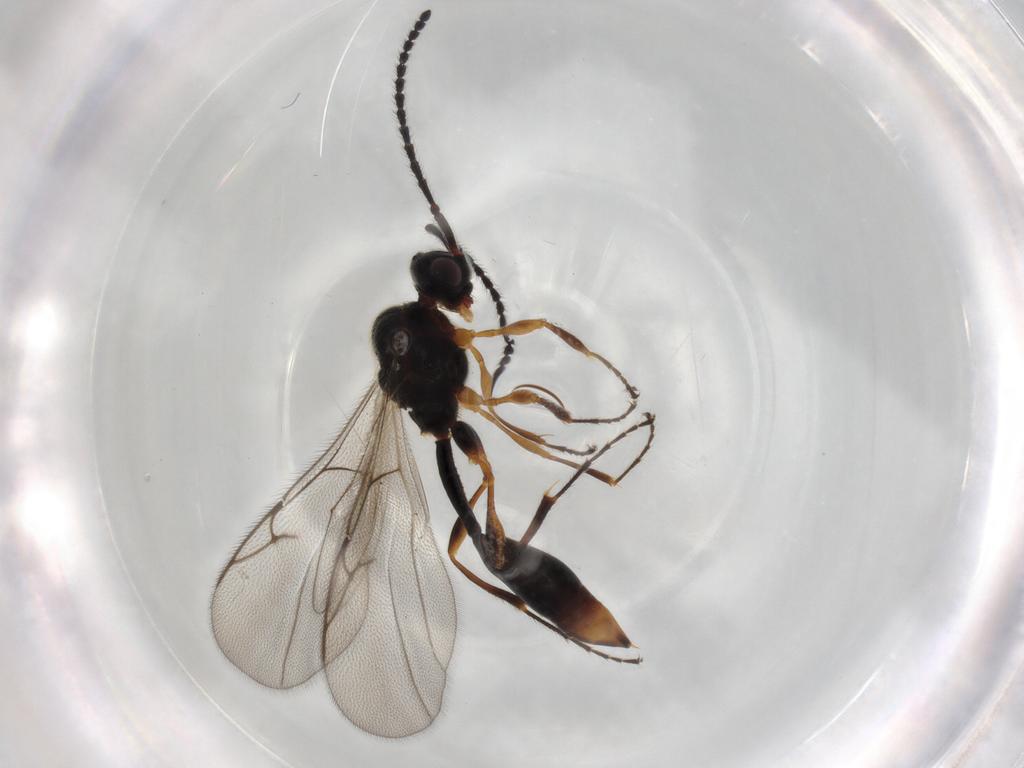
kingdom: Animalia
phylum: Arthropoda
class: Insecta
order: Hymenoptera
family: Diapriidae
